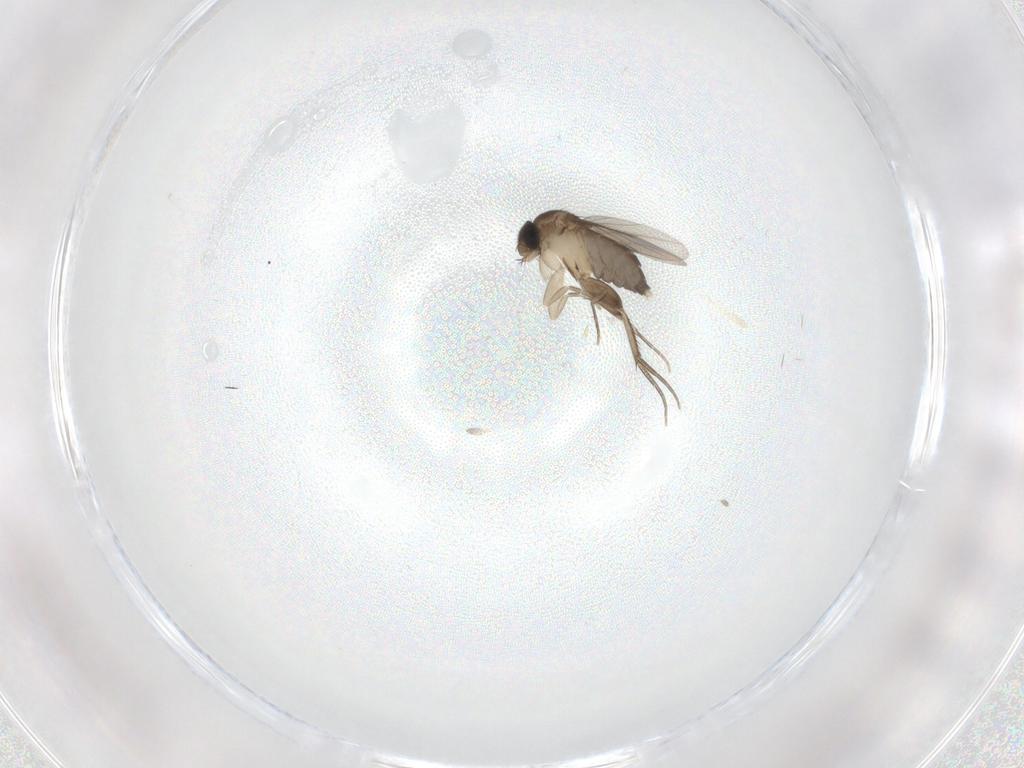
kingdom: Animalia
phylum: Arthropoda
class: Insecta
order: Diptera
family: Phoridae
